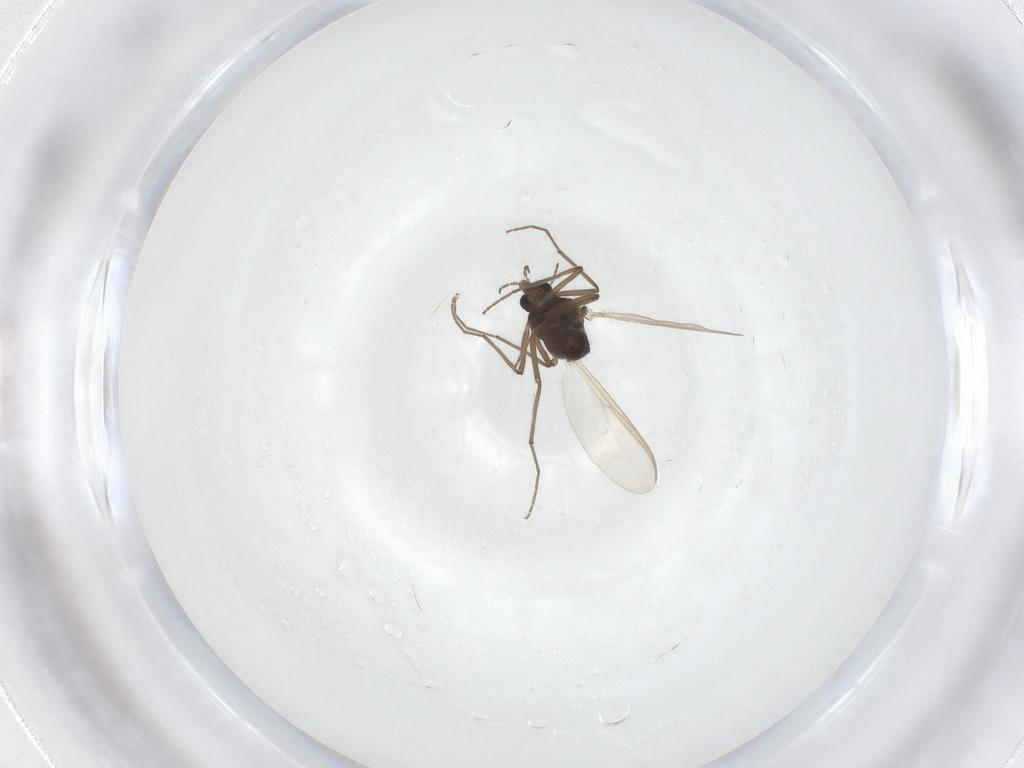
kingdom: Animalia
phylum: Arthropoda
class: Insecta
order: Diptera
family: Chironomidae
